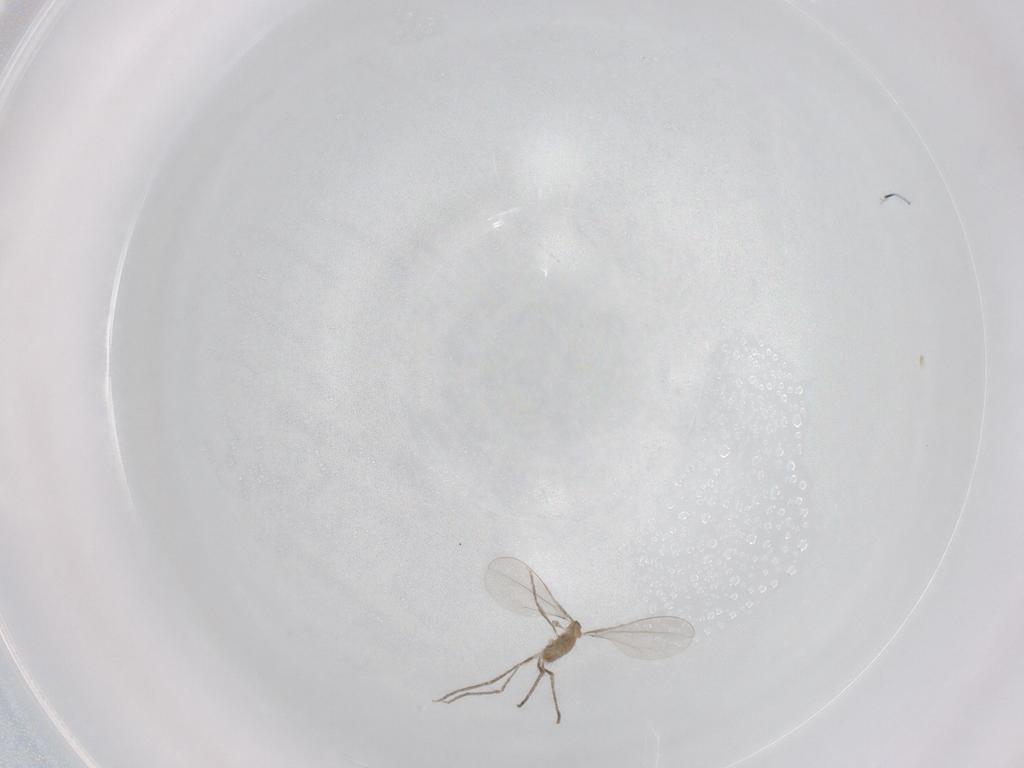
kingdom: Animalia
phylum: Arthropoda
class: Insecta
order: Diptera
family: Cecidomyiidae
